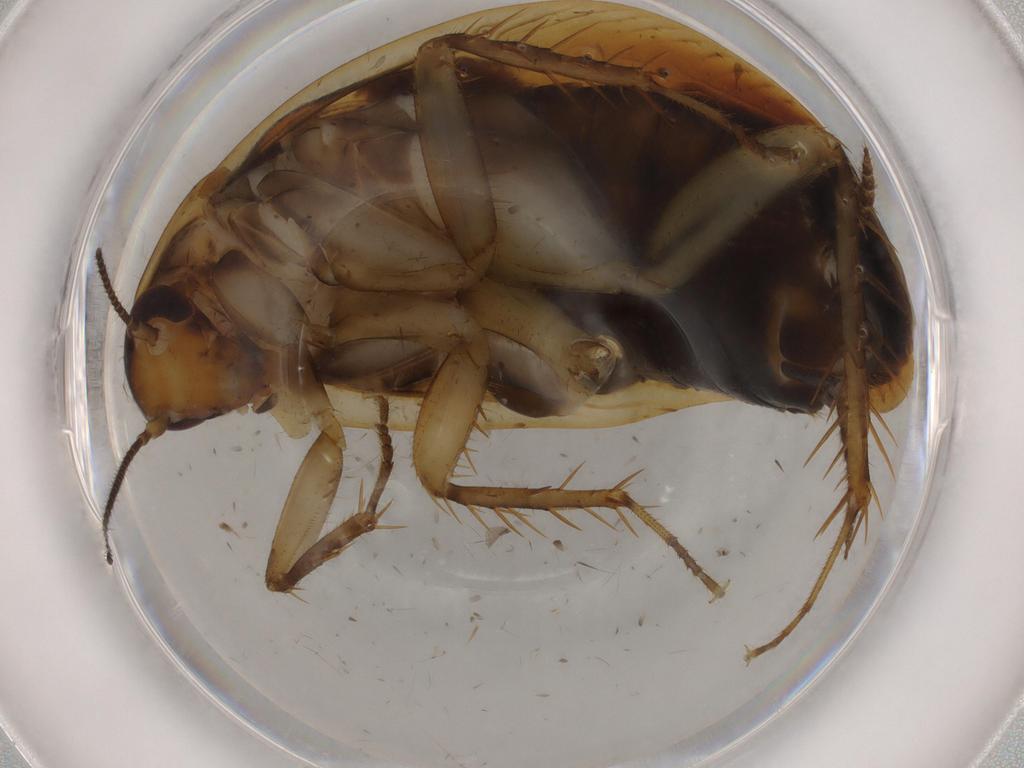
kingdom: Animalia
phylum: Arthropoda
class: Insecta
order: Blattodea
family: Ectobiidae
